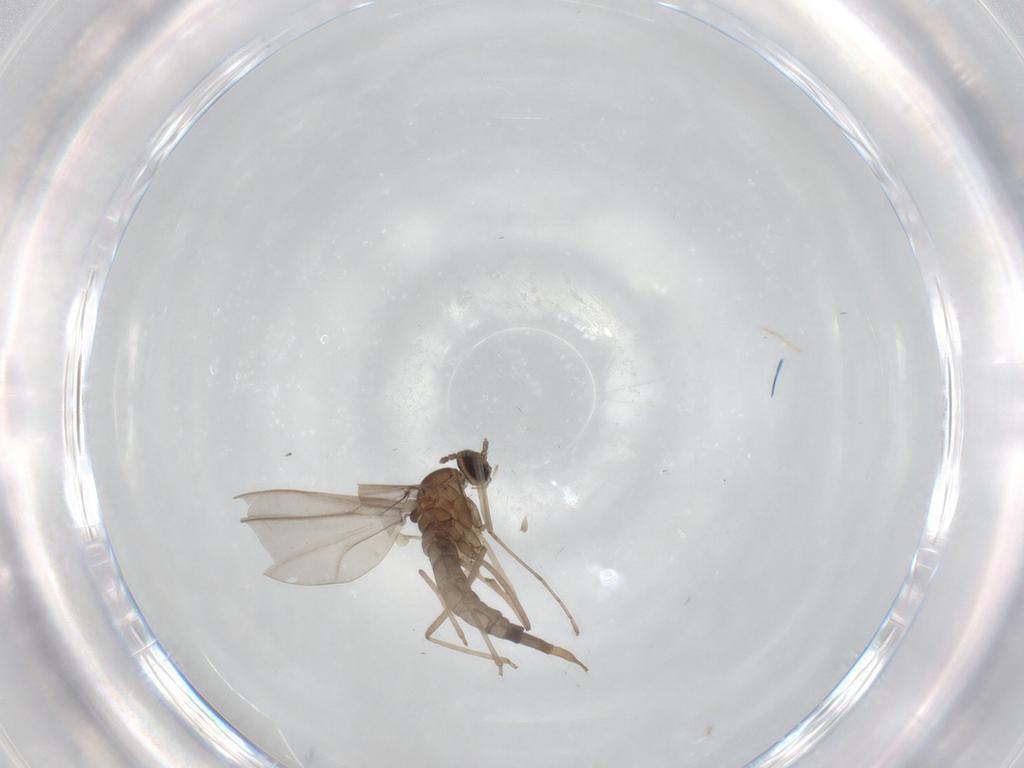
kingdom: Animalia
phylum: Arthropoda
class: Insecta
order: Diptera
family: Cecidomyiidae
